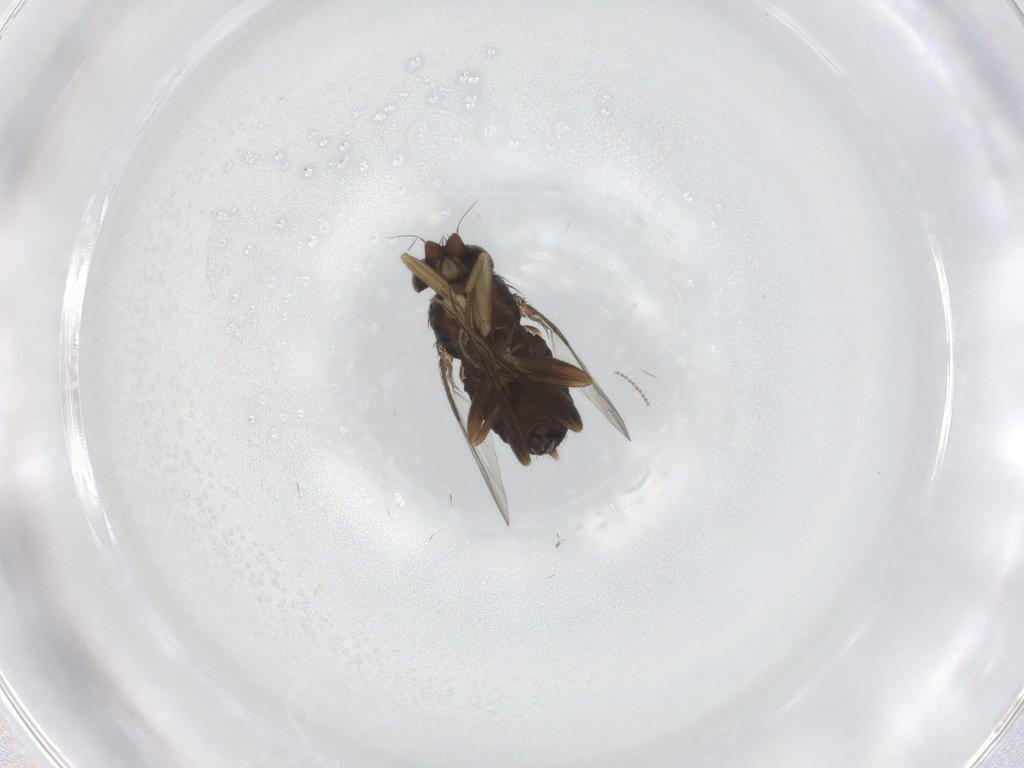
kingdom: Animalia
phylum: Arthropoda
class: Insecta
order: Diptera
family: Phoridae
